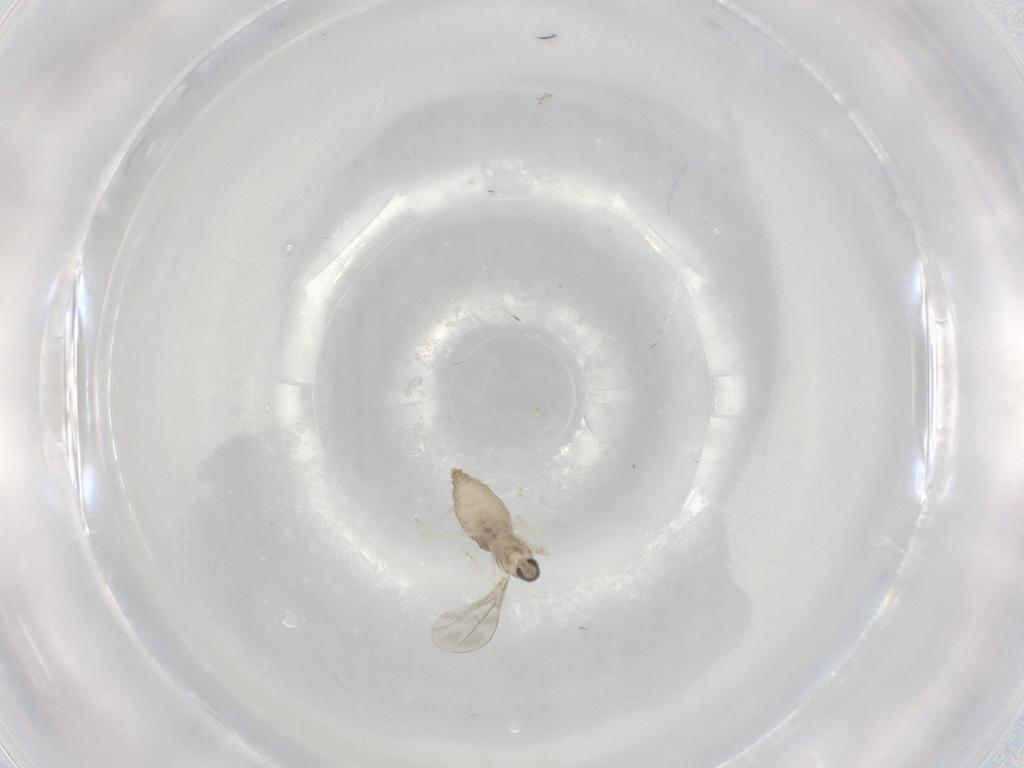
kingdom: Animalia
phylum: Arthropoda
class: Insecta
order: Diptera
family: Cecidomyiidae
